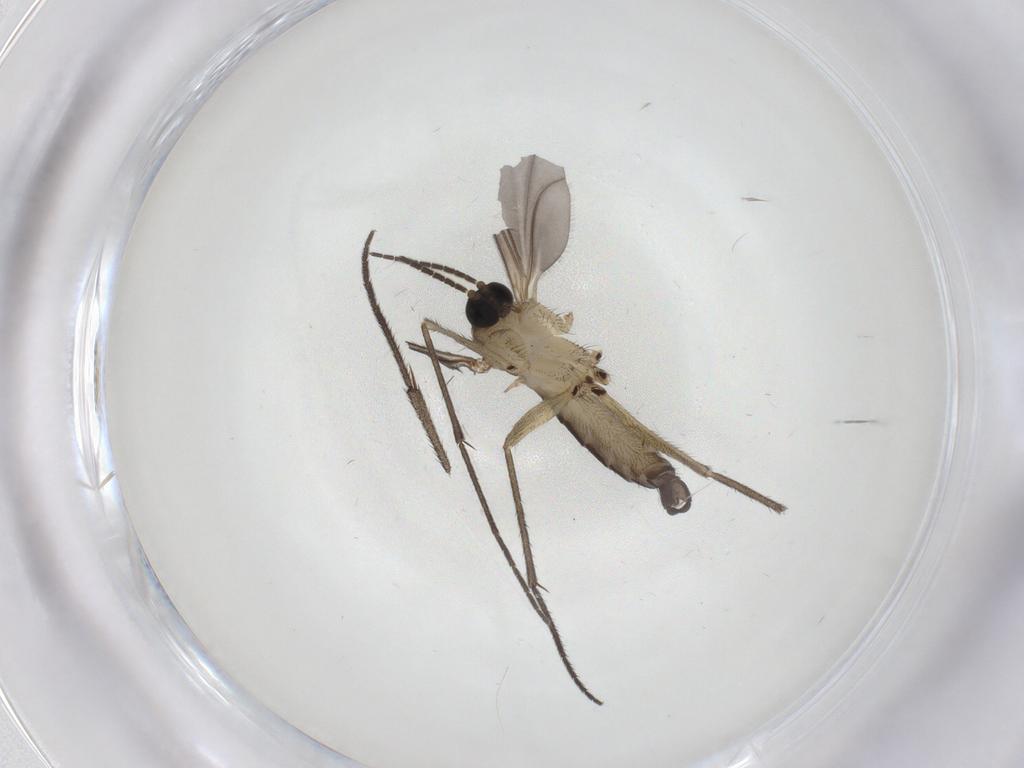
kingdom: Animalia
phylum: Arthropoda
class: Insecta
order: Diptera
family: Sciaridae
